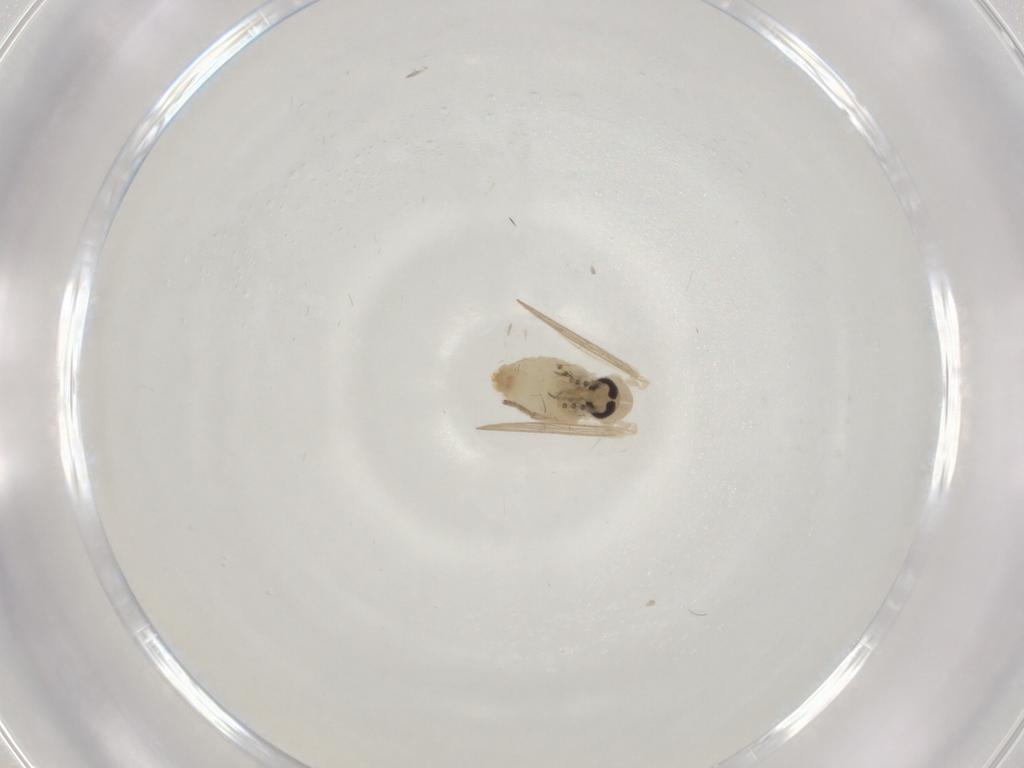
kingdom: Animalia
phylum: Arthropoda
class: Insecta
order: Diptera
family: Psychodidae
